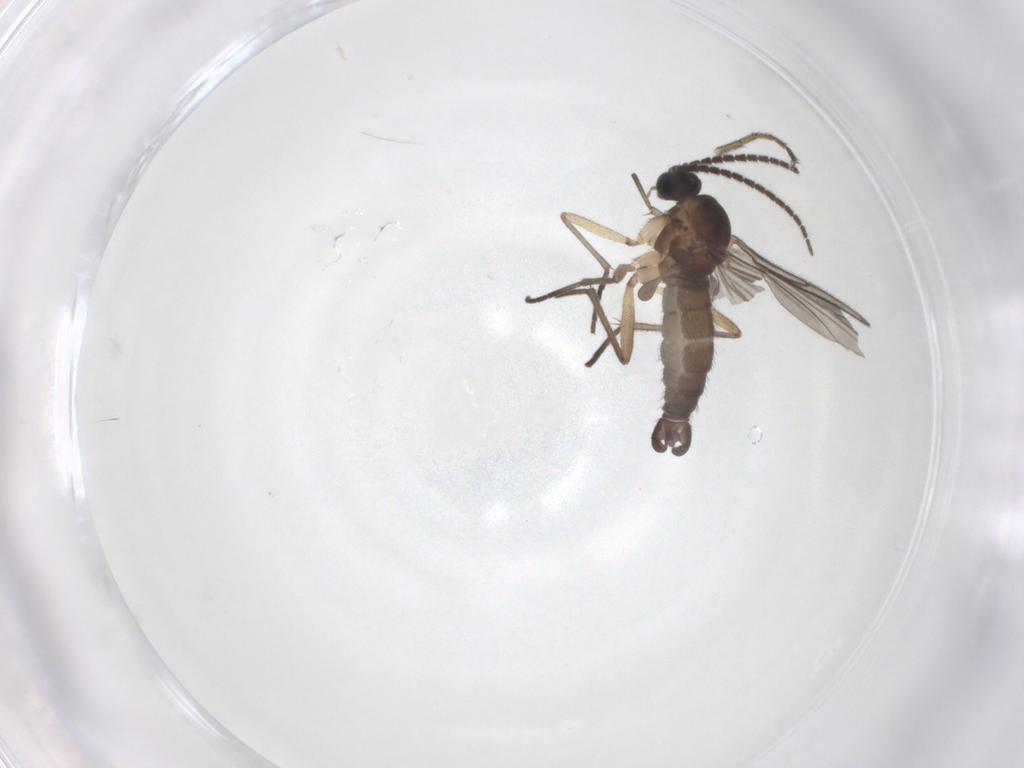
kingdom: Animalia
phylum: Arthropoda
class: Insecta
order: Diptera
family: Sciaridae
